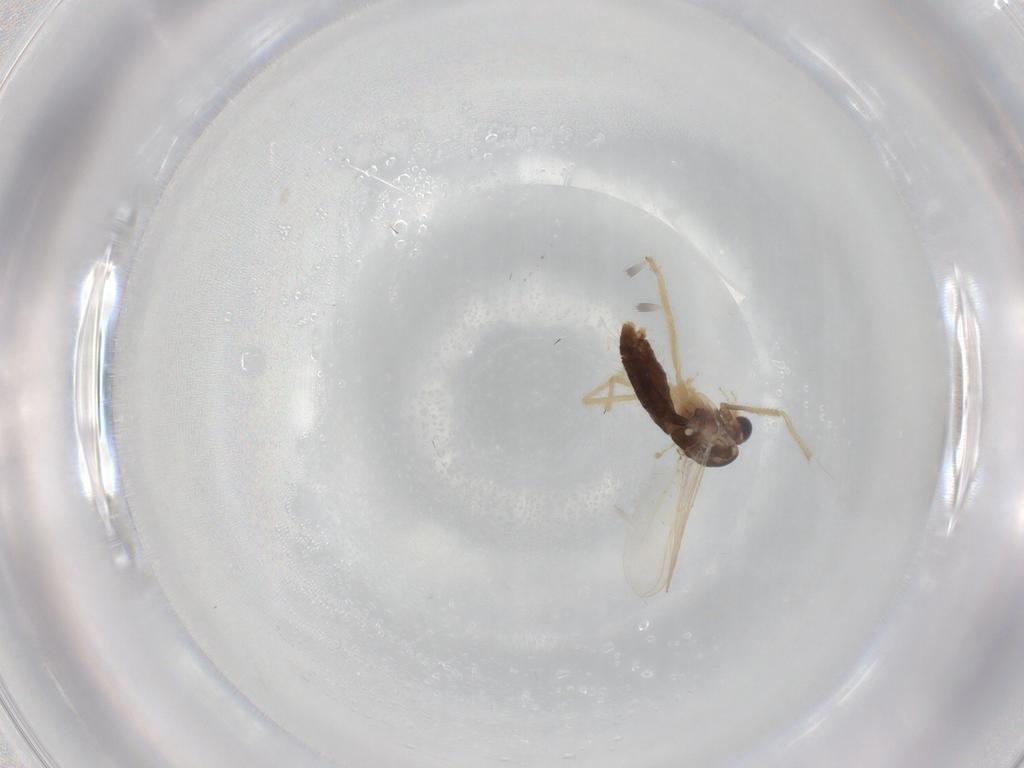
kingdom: Animalia
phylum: Arthropoda
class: Insecta
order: Diptera
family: Chironomidae
